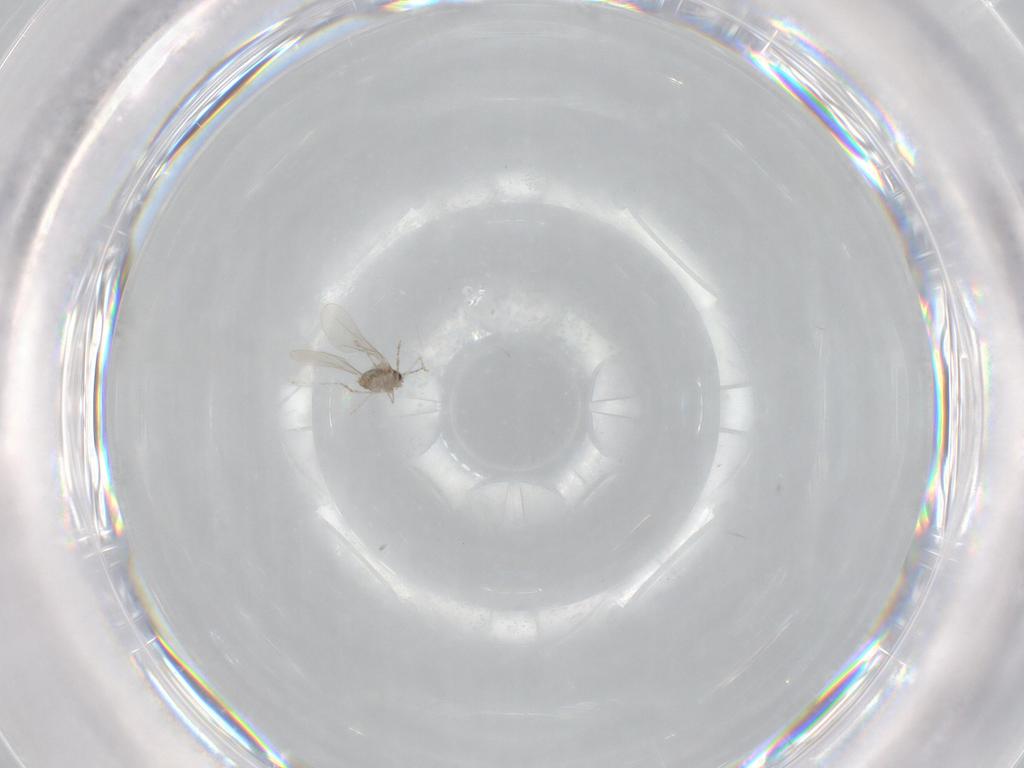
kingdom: Animalia
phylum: Arthropoda
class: Insecta
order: Diptera
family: Cecidomyiidae
